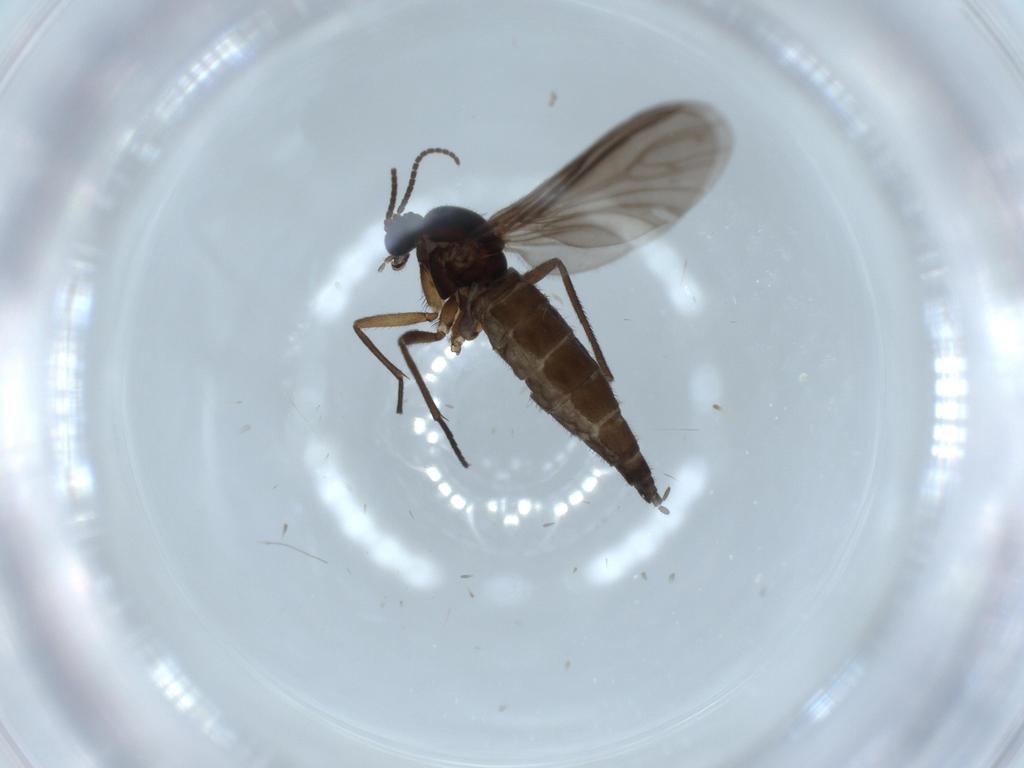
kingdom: Animalia
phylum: Arthropoda
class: Insecta
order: Diptera
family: Sciaridae
